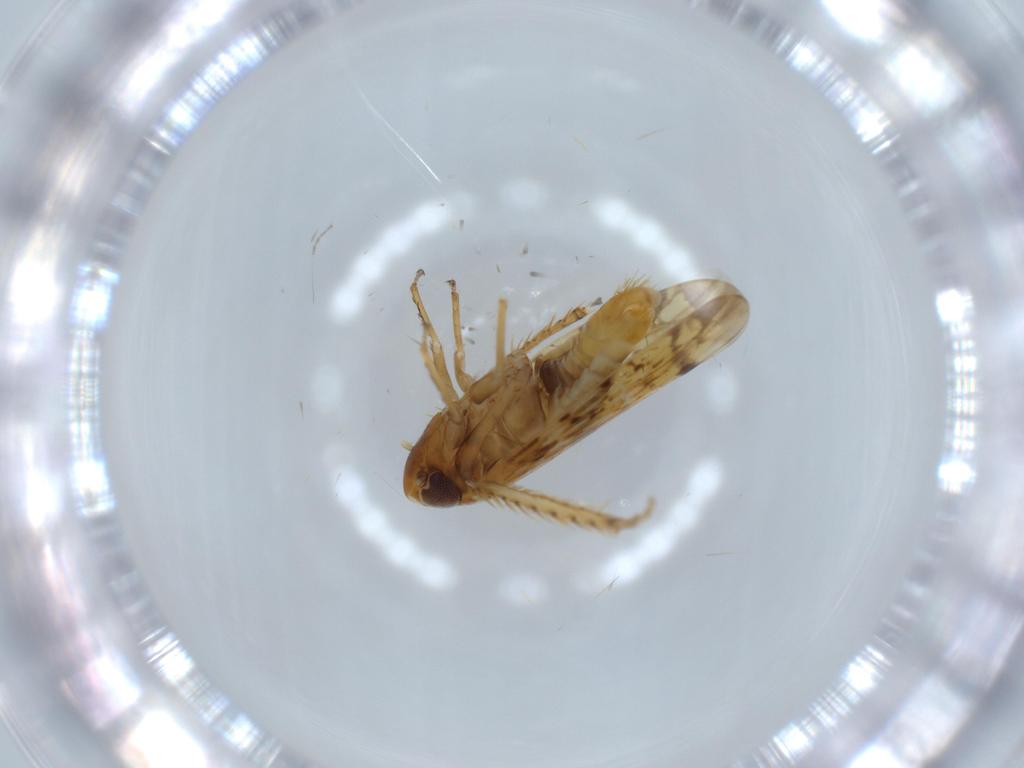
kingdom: Animalia
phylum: Arthropoda
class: Insecta
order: Hemiptera
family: Cicadellidae
